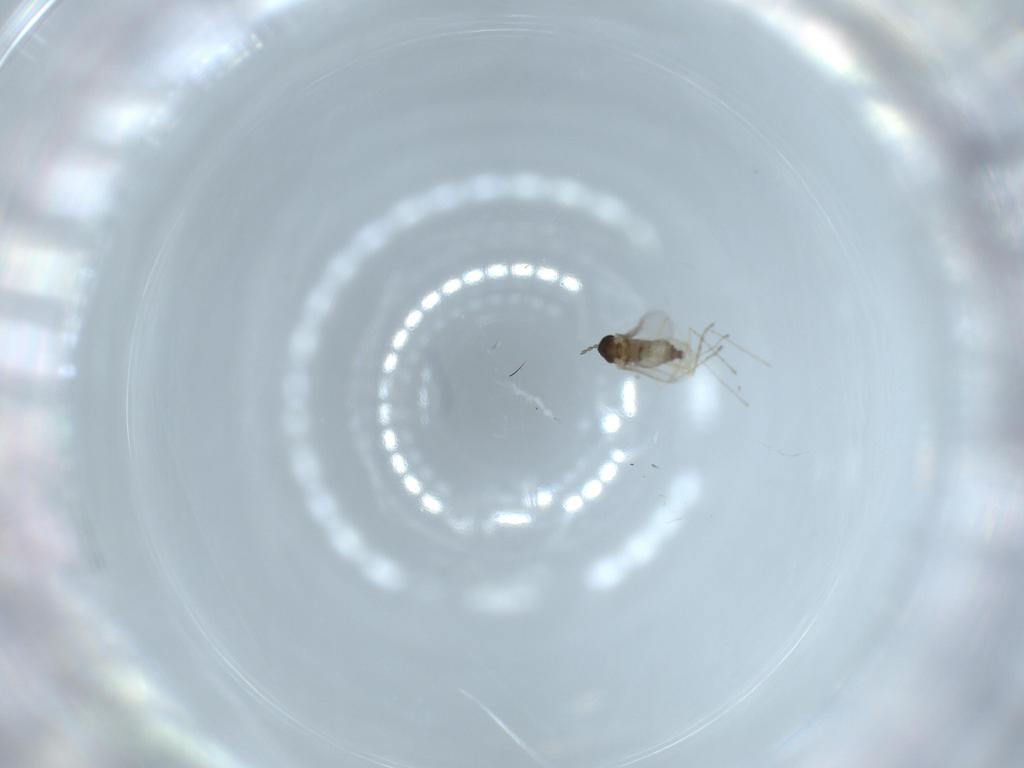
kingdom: Animalia
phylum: Arthropoda
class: Insecta
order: Diptera
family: Cecidomyiidae
